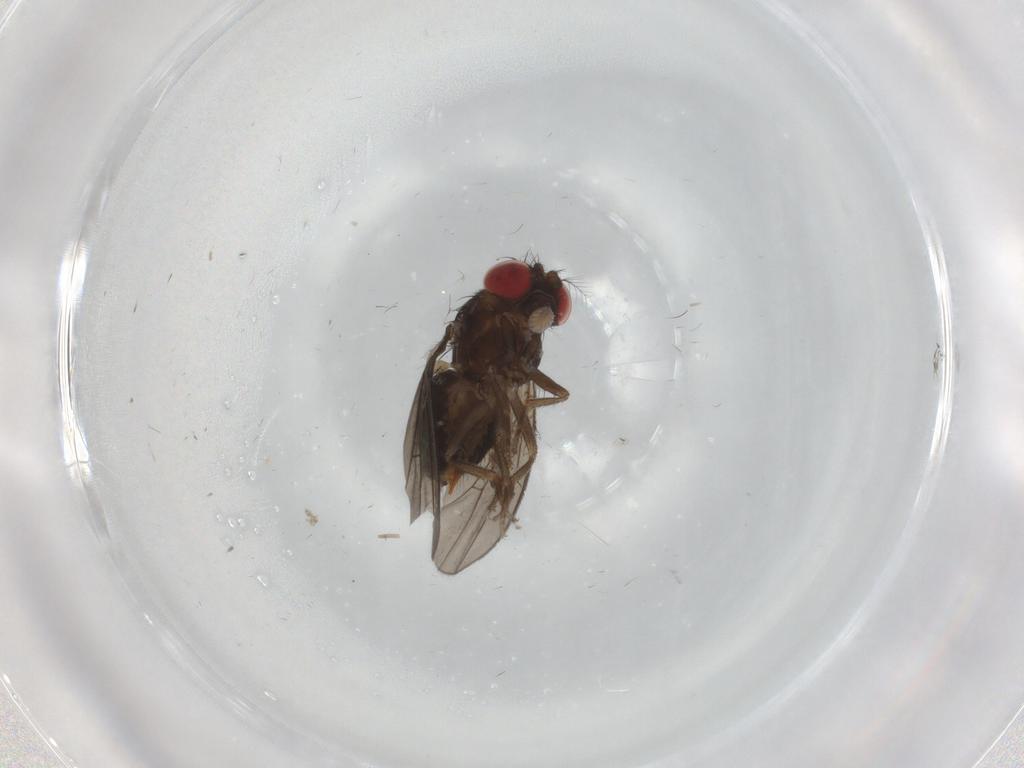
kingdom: Animalia
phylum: Arthropoda
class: Insecta
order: Diptera
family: Drosophilidae
